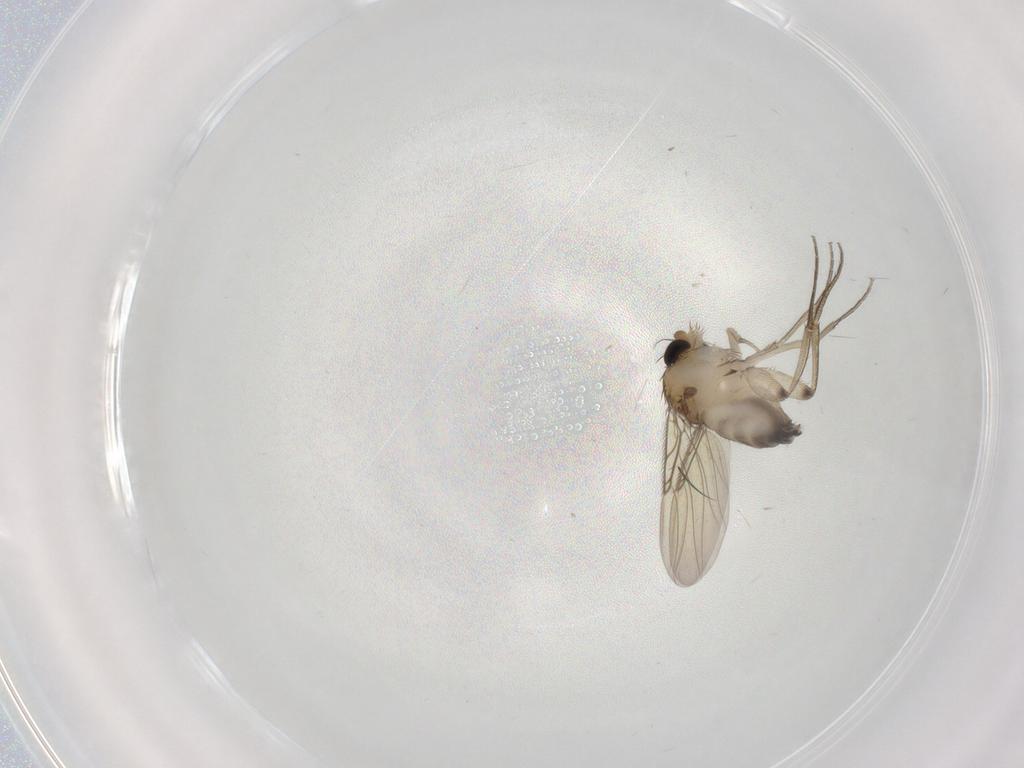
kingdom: Animalia
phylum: Arthropoda
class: Insecta
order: Diptera
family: Phoridae
